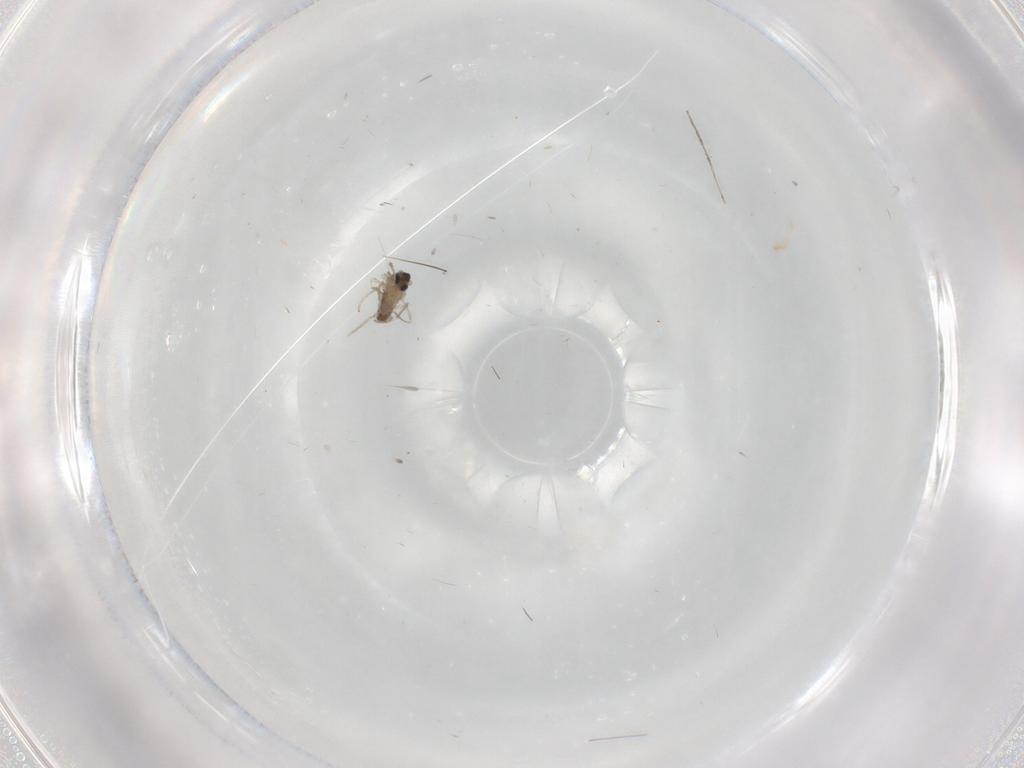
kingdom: Animalia
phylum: Arthropoda
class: Insecta
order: Diptera
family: Cecidomyiidae
